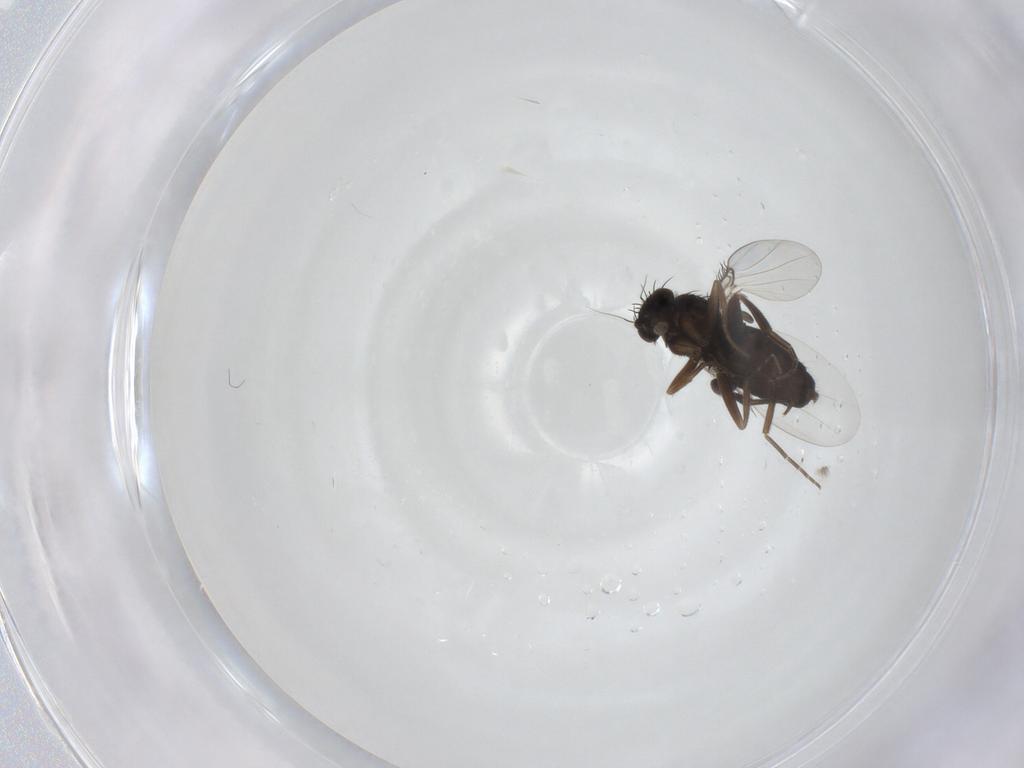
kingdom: Animalia
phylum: Arthropoda
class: Insecta
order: Diptera
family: Phoridae
